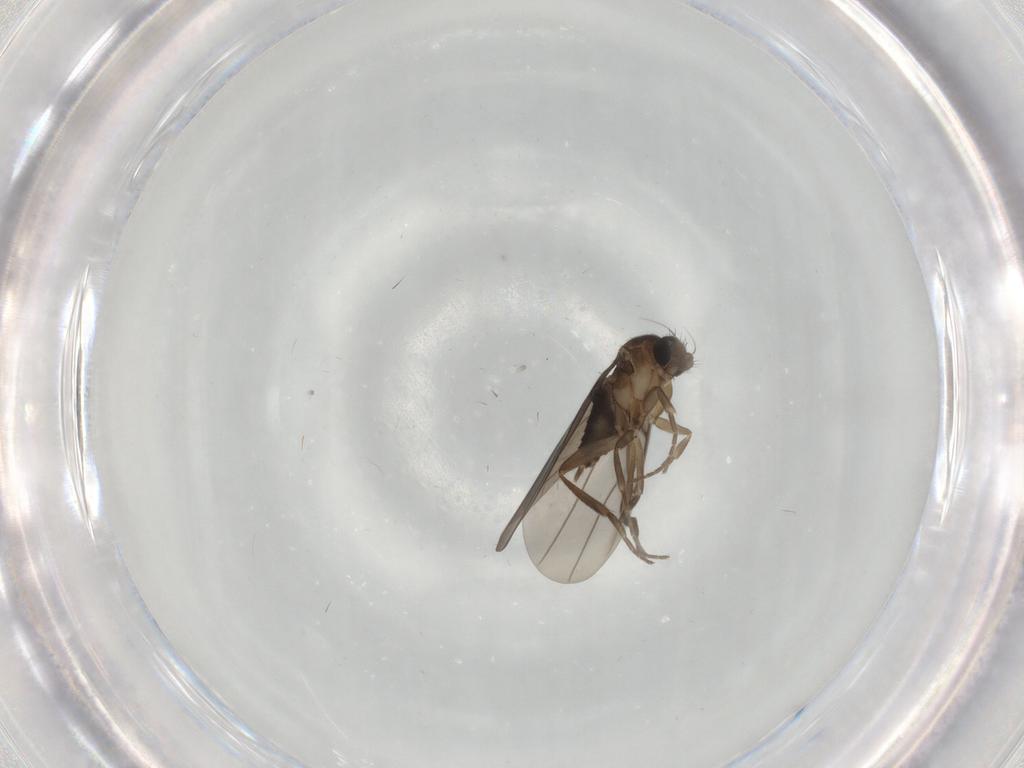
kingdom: Animalia
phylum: Arthropoda
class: Insecta
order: Diptera
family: Phoridae
